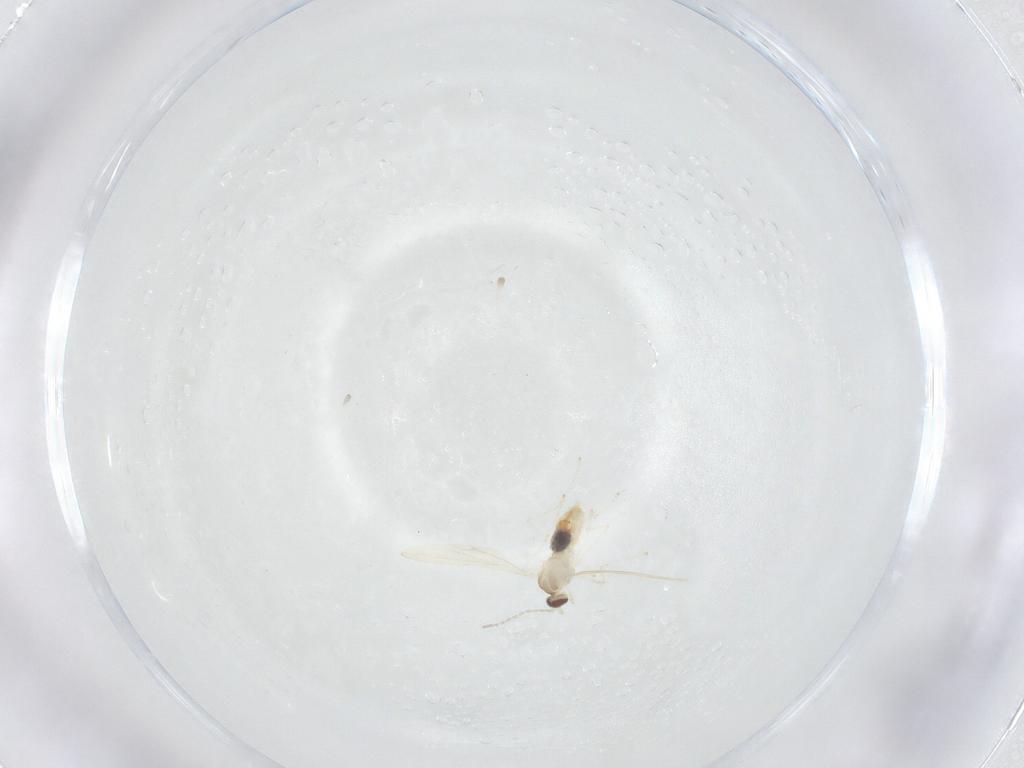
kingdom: Animalia
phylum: Arthropoda
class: Insecta
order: Diptera
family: Cecidomyiidae
